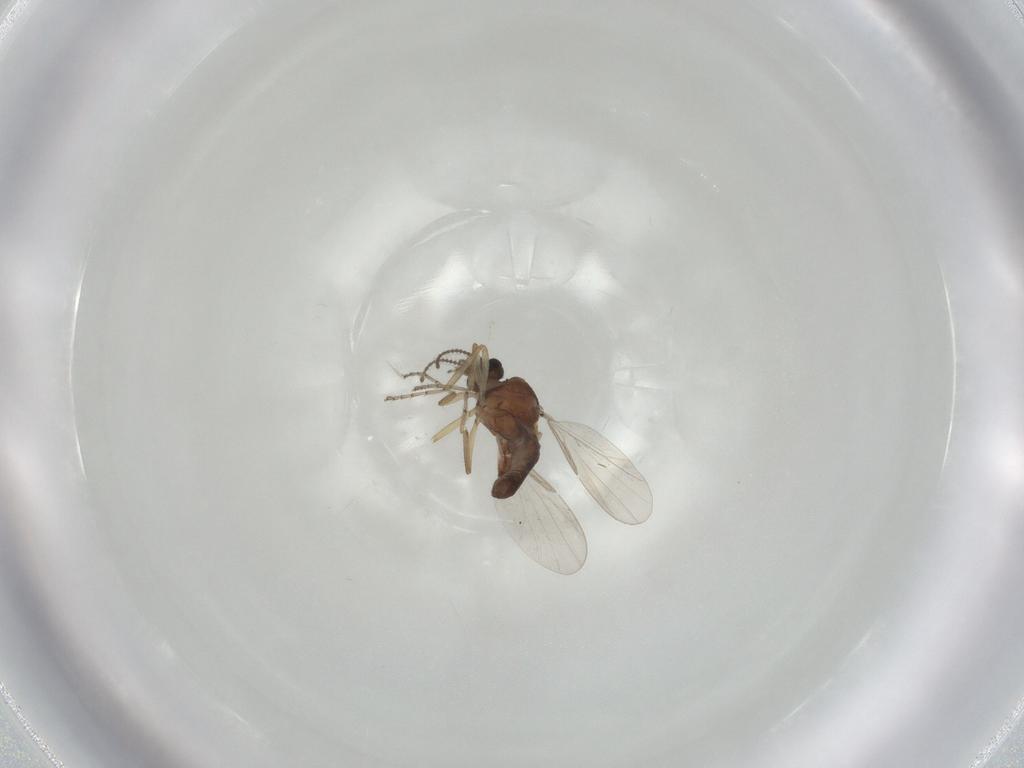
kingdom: Animalia
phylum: Arthropoda
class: Insecta
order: Diptera
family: Ceratopogonidae
